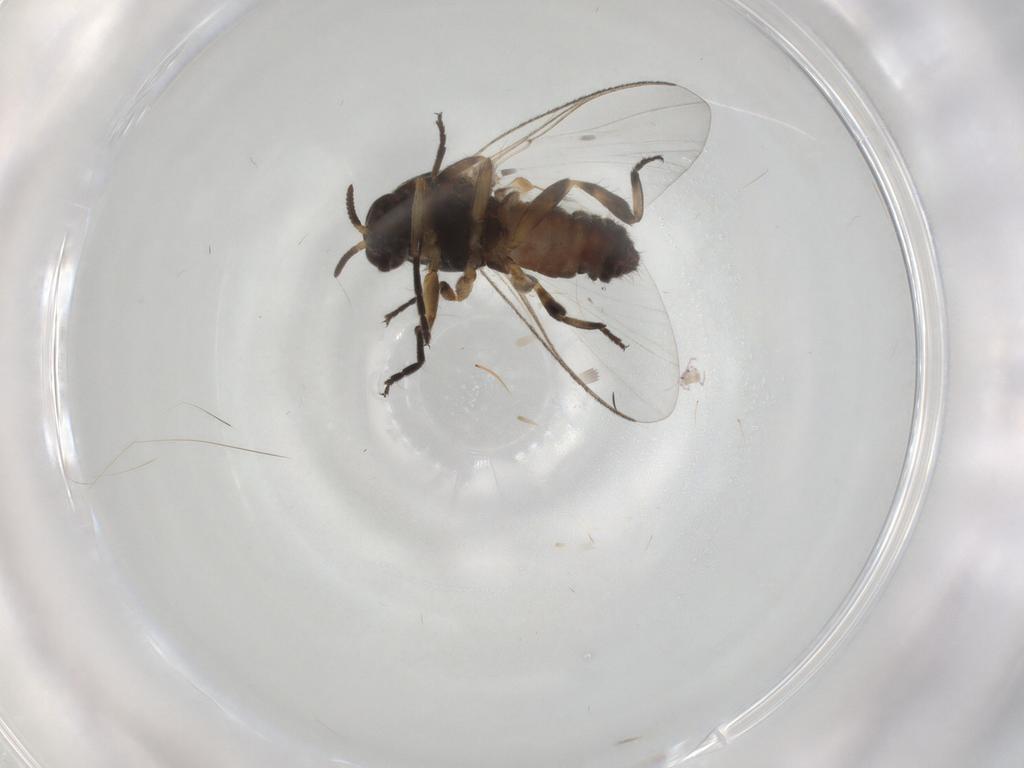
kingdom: Animalia
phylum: Arthropoda
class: Insecta
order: Diptera
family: Chironomidae
